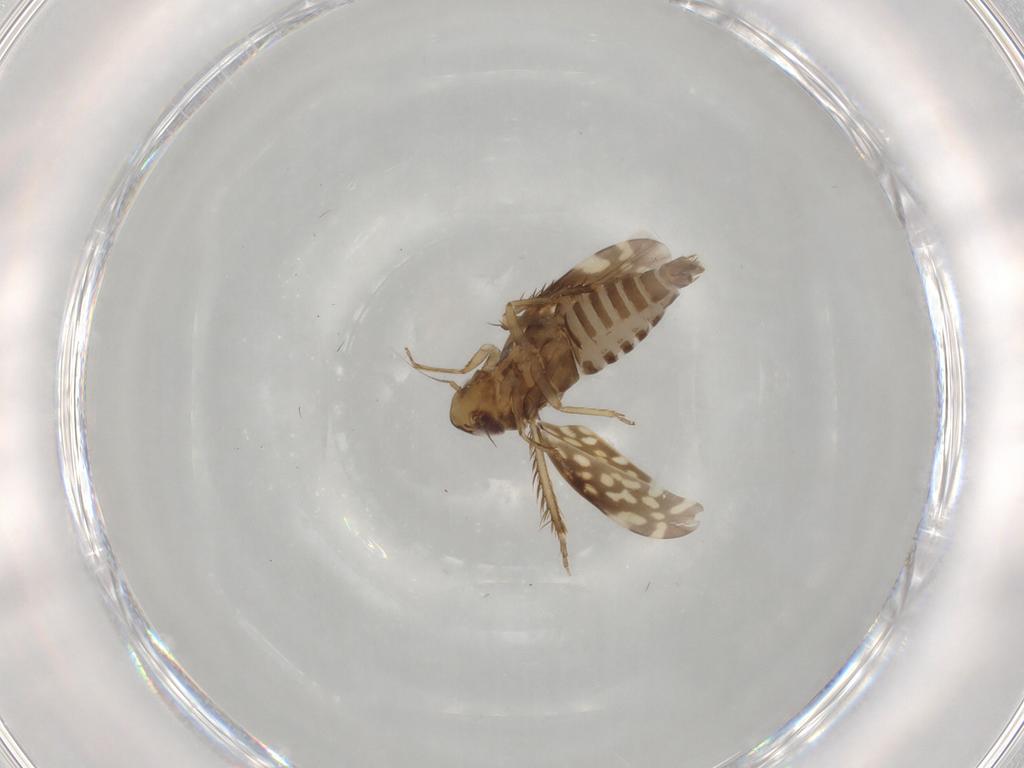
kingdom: Animalia
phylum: Arthropoda
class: Insecta
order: Hemiptera
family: Cicadellidae
